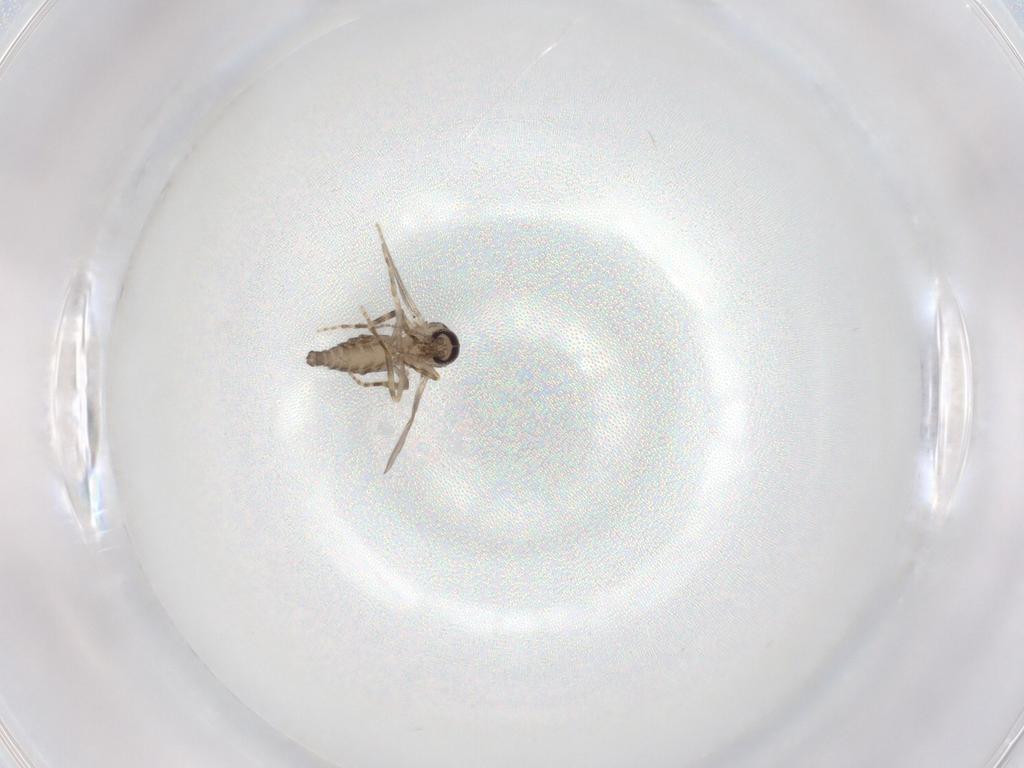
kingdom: Animalia
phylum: Arthropoda
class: Insecta
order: Diptera
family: Ceratopogonidae
